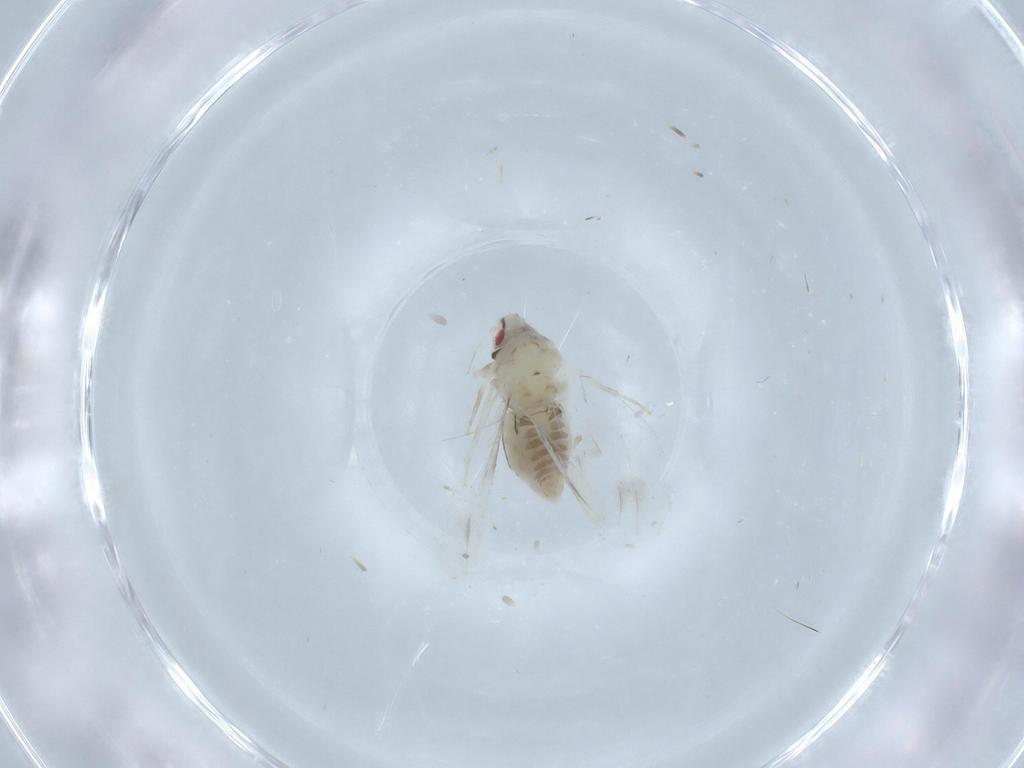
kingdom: Animalia
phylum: Arthropoda
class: Insecta
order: Hemiptera
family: Aleyrodidae
